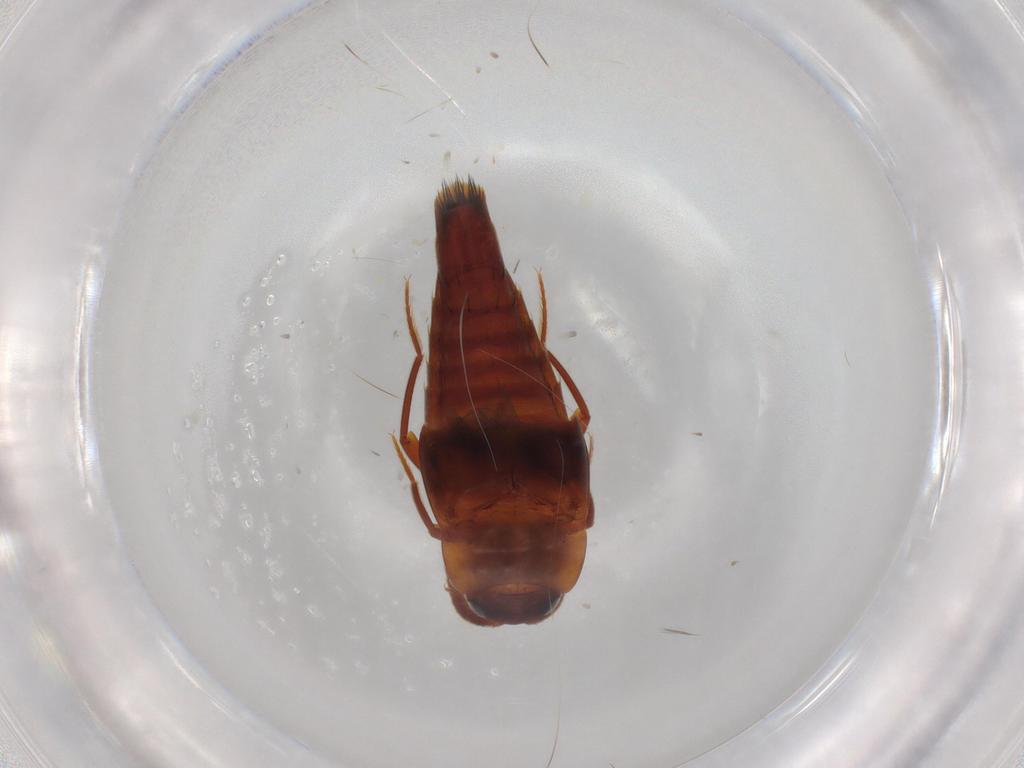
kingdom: Animalia
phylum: Arthropoda
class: Insecta
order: Coleoptera
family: Staphylinidae
